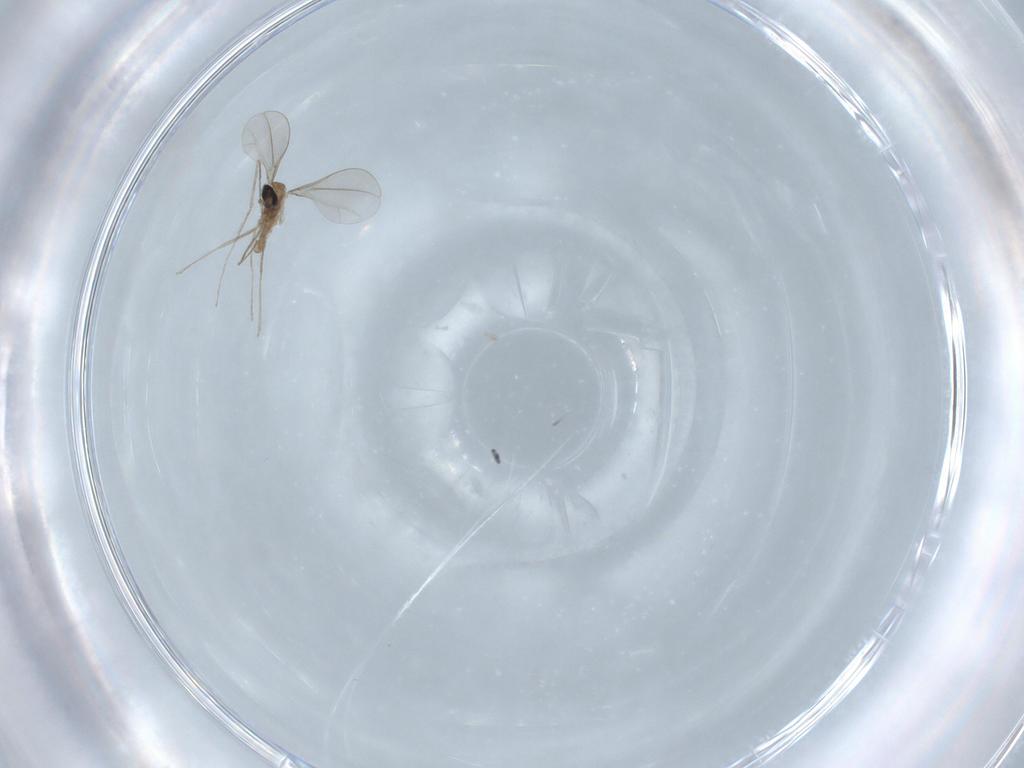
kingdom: Animalia
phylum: Arthropoda
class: Insecta
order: Diptera
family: Cecidomyiidae
